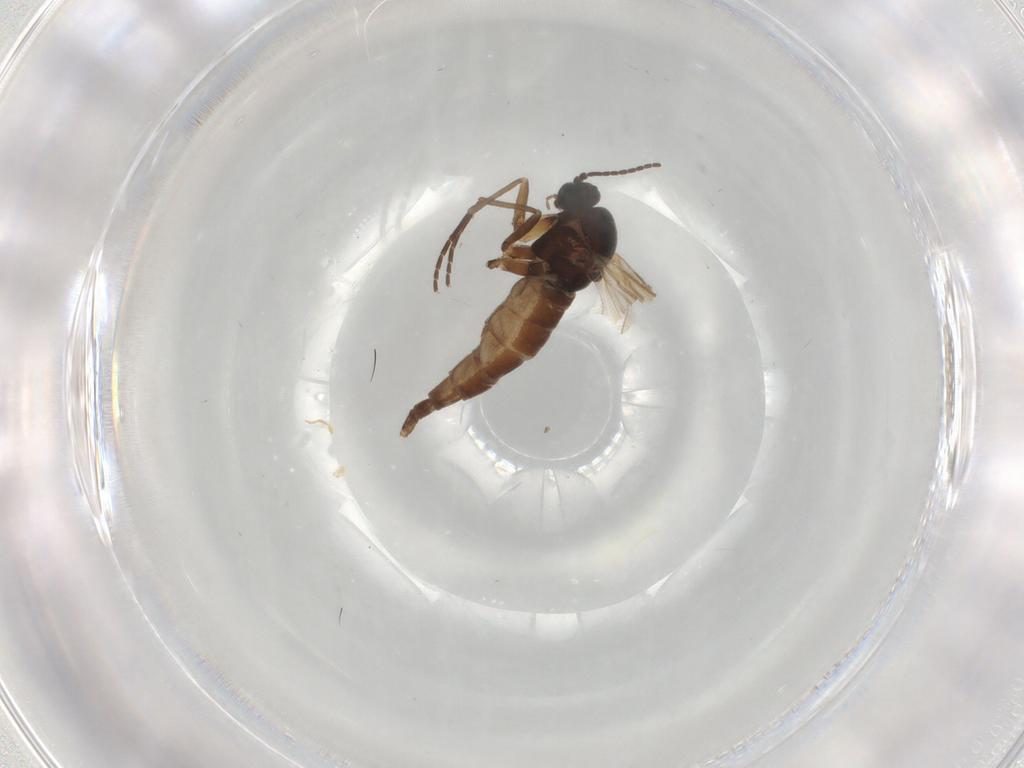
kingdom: Animalia
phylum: Arthropoda
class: Insecta
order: Diptera
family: Sciaridae
